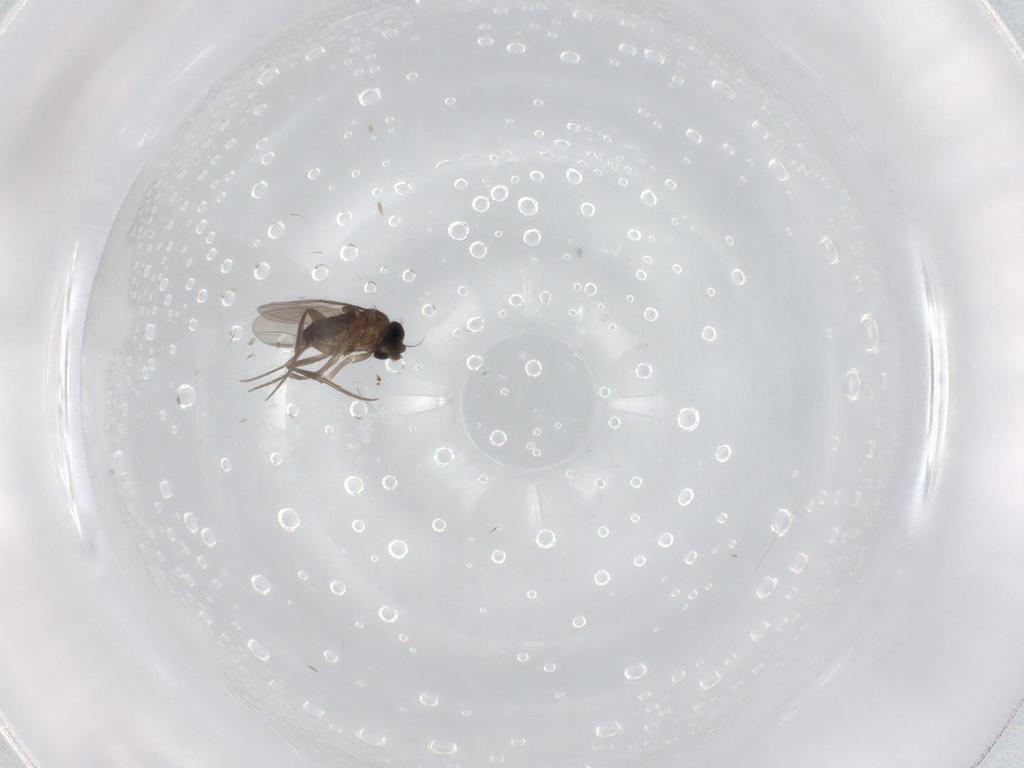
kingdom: Animalia
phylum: Arthropoda
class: Insecta
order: Diptera
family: Phoridae
